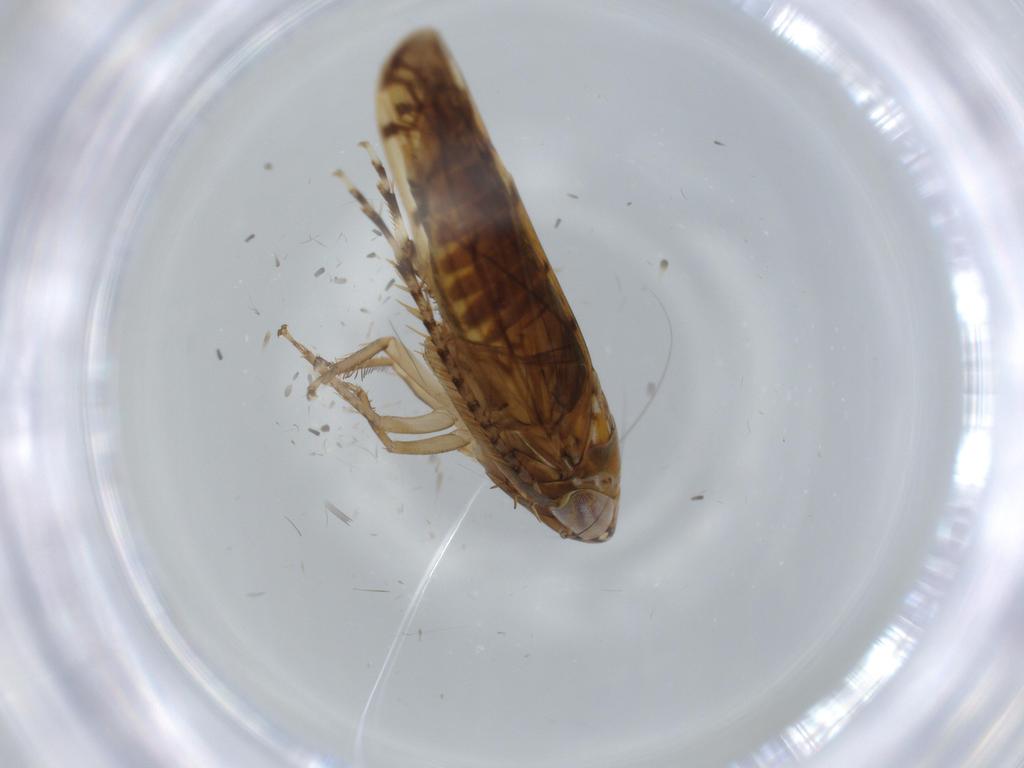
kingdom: Animalia
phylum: Arthropoda
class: Insecta
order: Hemiptera
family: Cicadellidae
